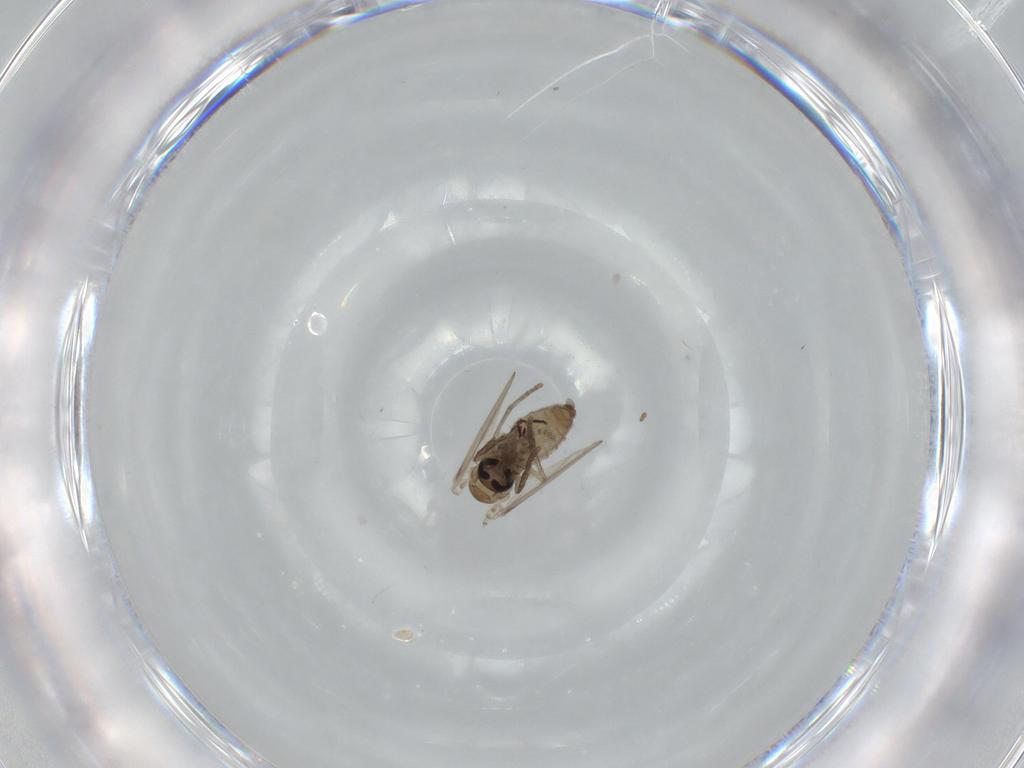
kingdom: Animalia
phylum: Arthropoda
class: Insecta
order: Diptera
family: Psychodidae
